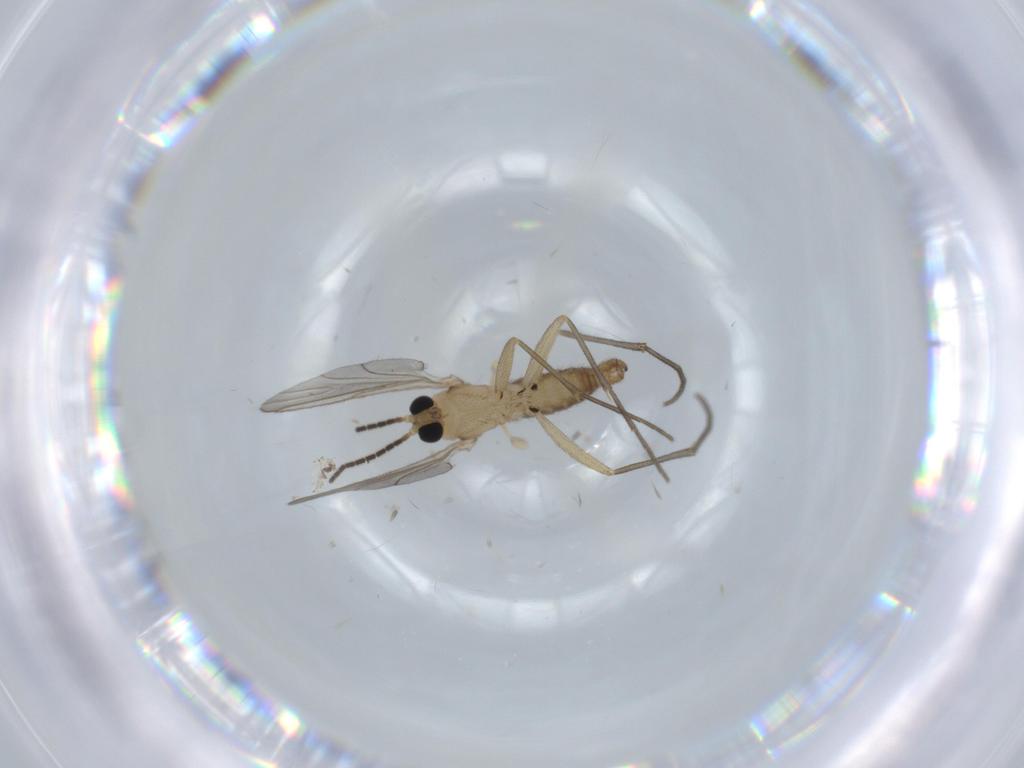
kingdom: Animalia
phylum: Arthropoda
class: Insecta
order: Diptera
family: Sciaridae
